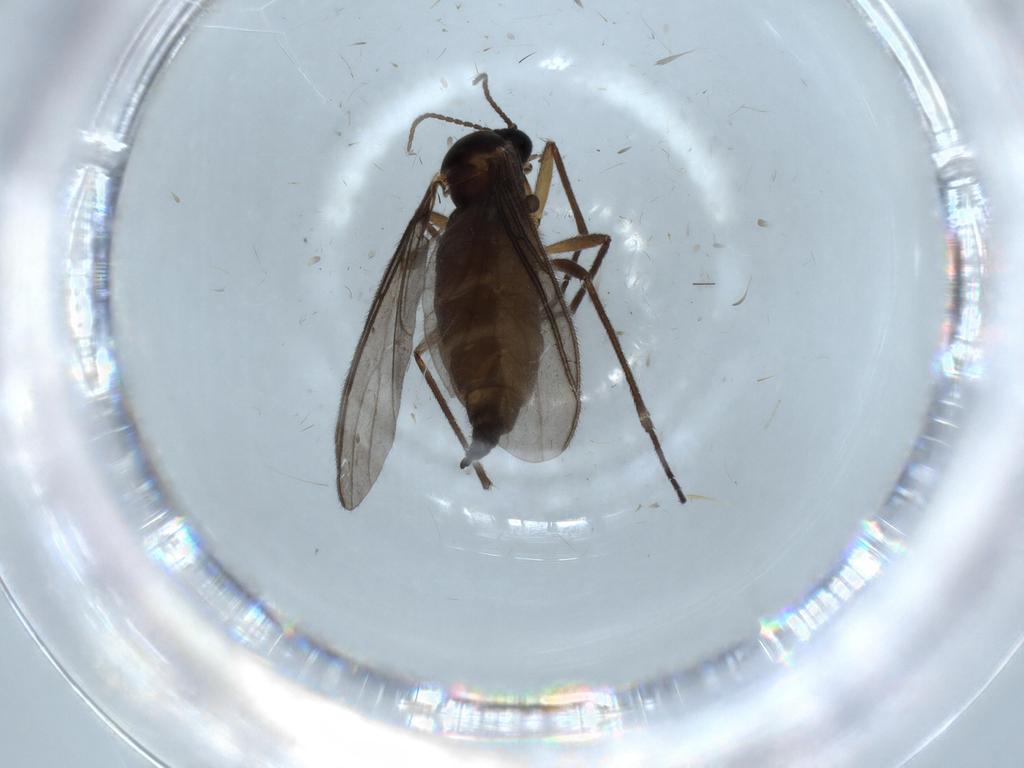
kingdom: Animalia
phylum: Arthropoda
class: Insecta
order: Diptera
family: Sciaridae
